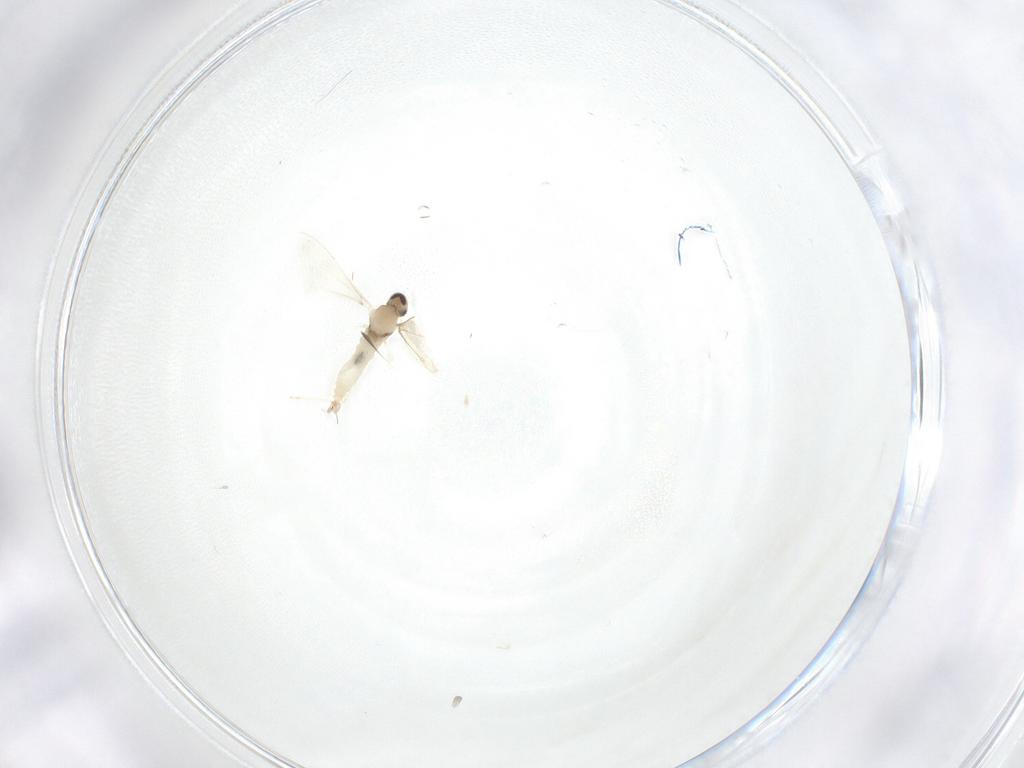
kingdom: Animalia
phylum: Arthropoda
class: Insecta
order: Diptera
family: Cecidomyiidae
